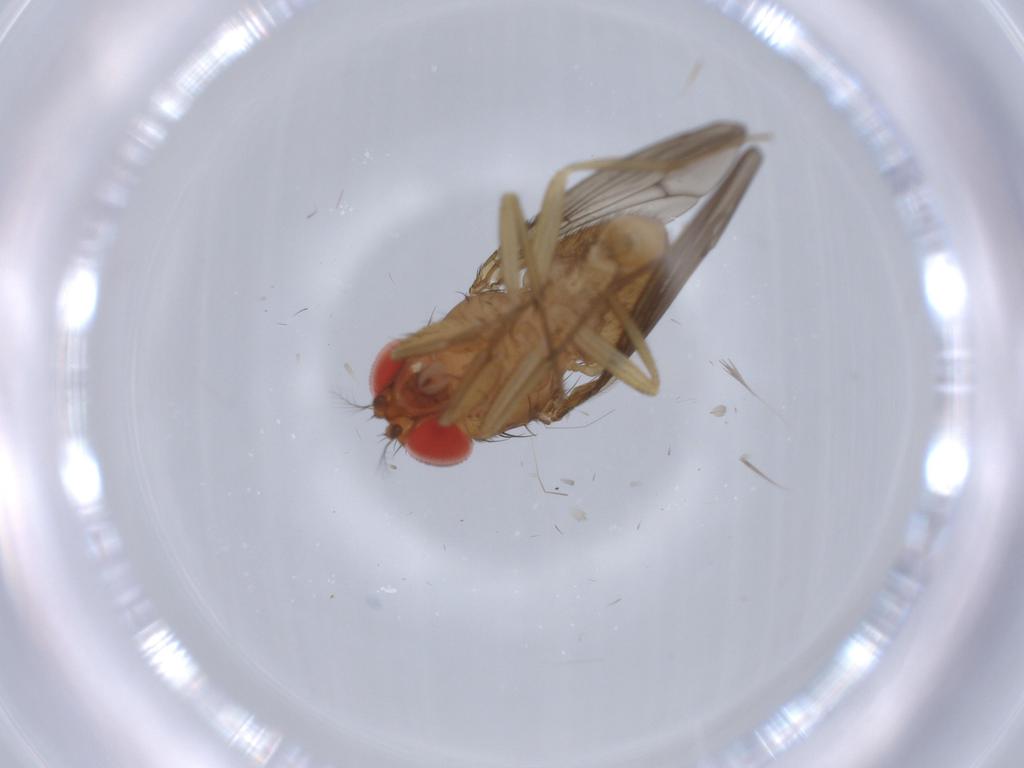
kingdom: Animalia
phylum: Arthropoda
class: Insecta
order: Diptera
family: Drosophilidae
